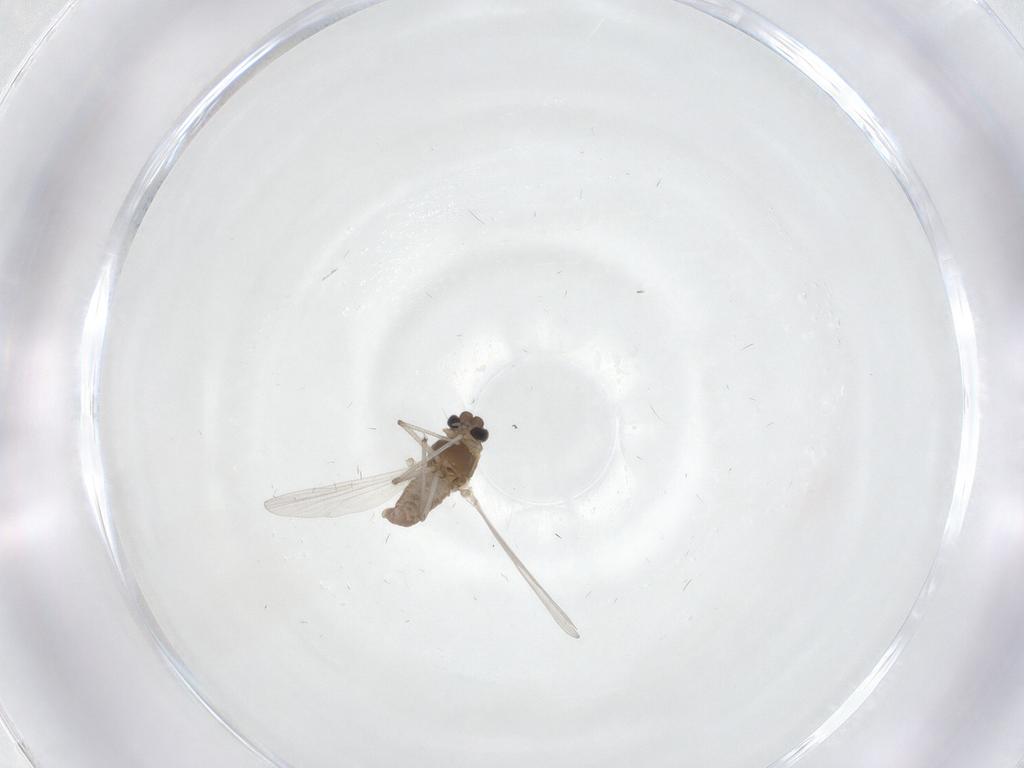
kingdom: Animalia
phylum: Arthropoda
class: Insecta
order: Diptera
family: Chironomidae
